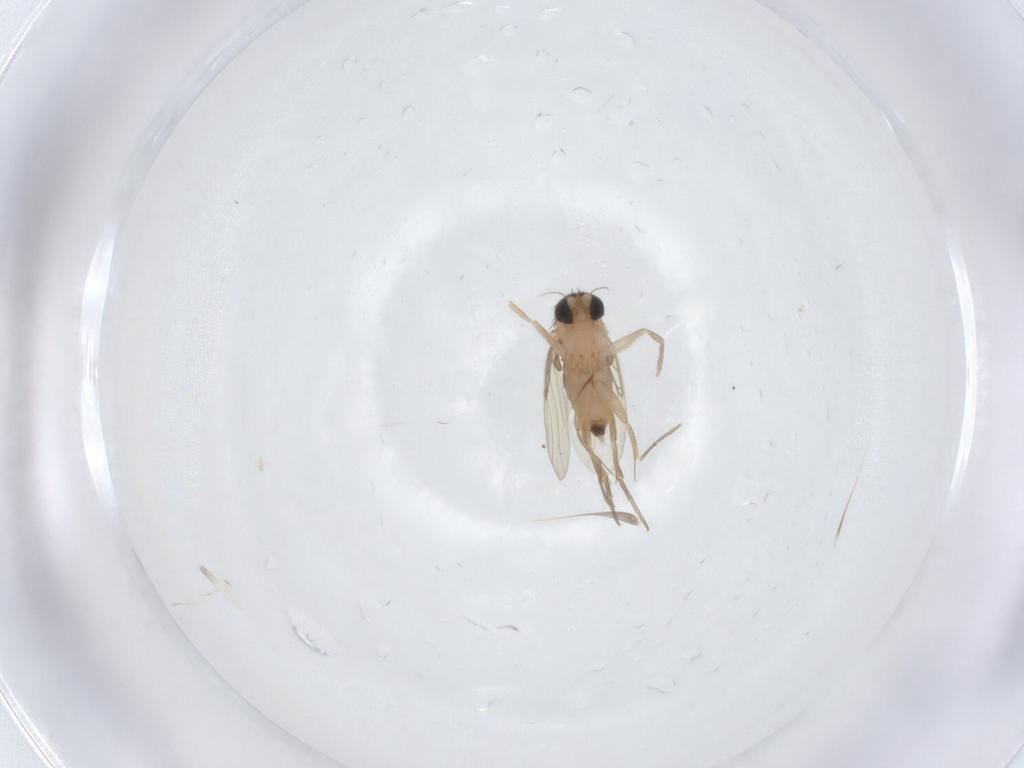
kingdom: Animalia
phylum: Arthropoda
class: Insecta
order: Diptera
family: Phoridae
